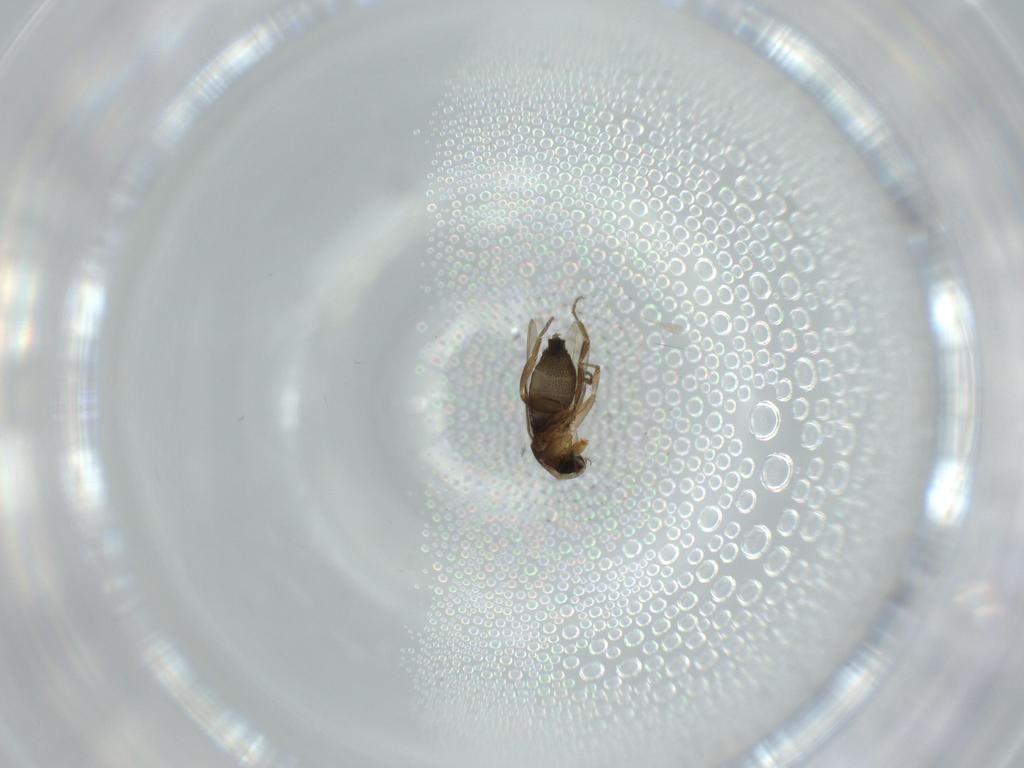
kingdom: Animalia
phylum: Arthropoda
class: Insecta
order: Diptera
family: Phoridae
